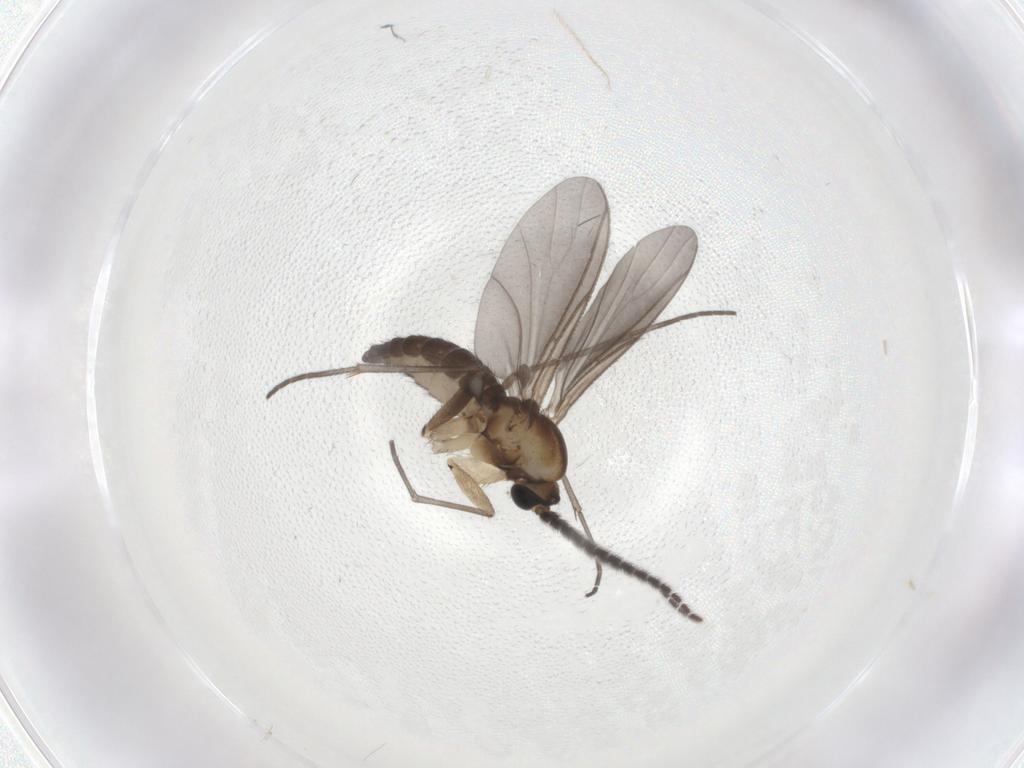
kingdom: Animalia
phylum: Arthropoda
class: Insecta
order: Diptera
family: Sciaridae
